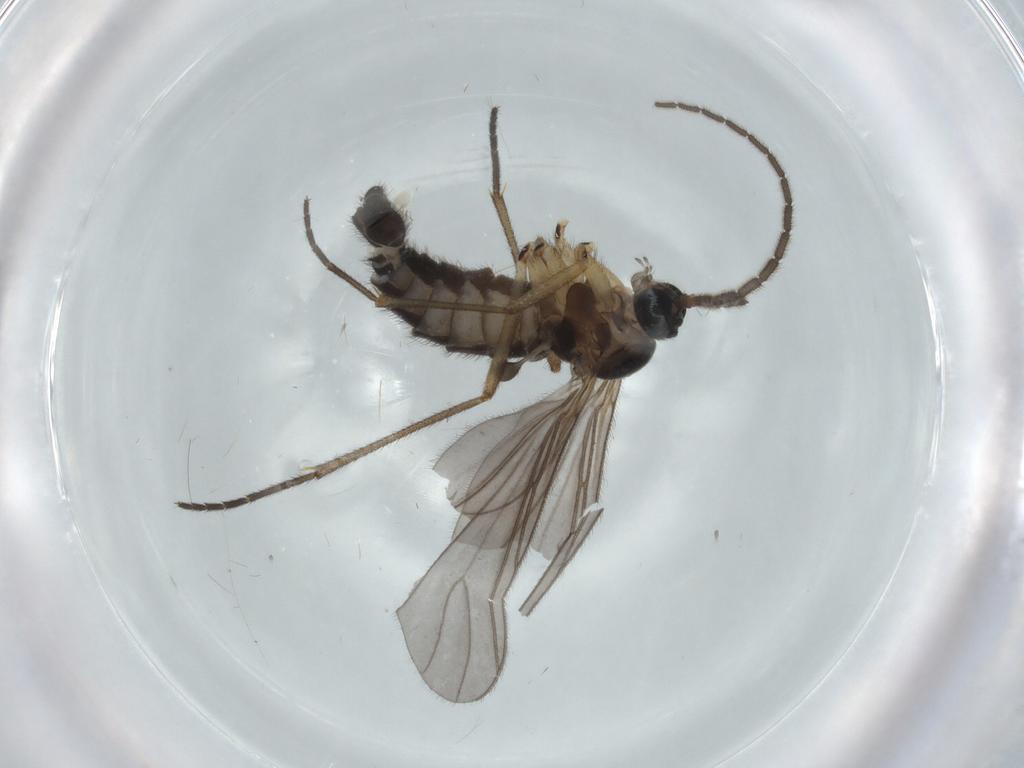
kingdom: Animalia
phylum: Arthropoda
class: Insecta
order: Diptera
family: Sciaridae
